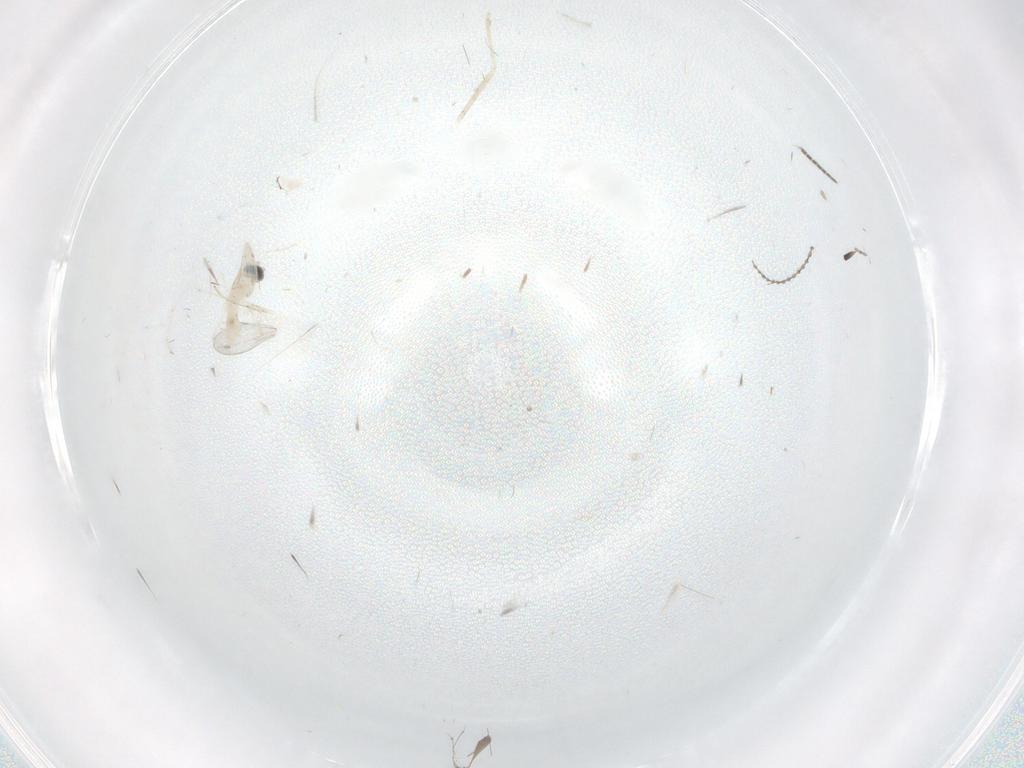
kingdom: Animalia
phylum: Arthropoda
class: Insecta
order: Diptera
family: Cecidomyiidae
